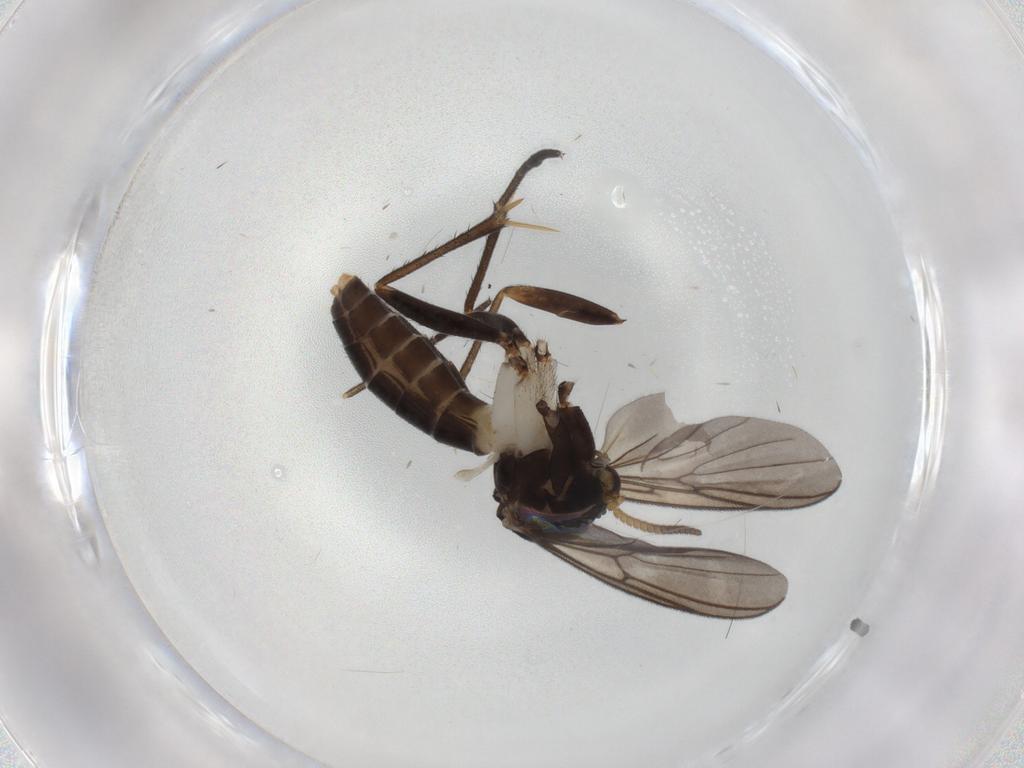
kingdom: Animalia
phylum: Arthropoda
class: Insecta
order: Diptera
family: Mycetophilidae
